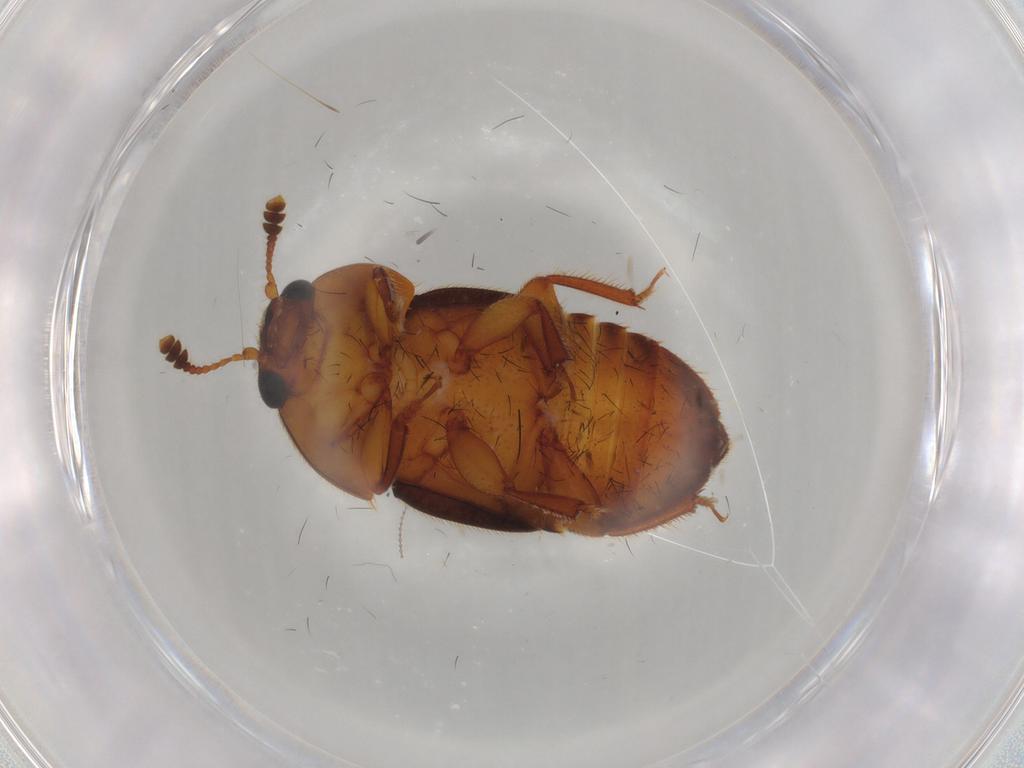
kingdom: Animalia
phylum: Arthropoda
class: Insecta
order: Coleoptera
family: Nitidulidae
